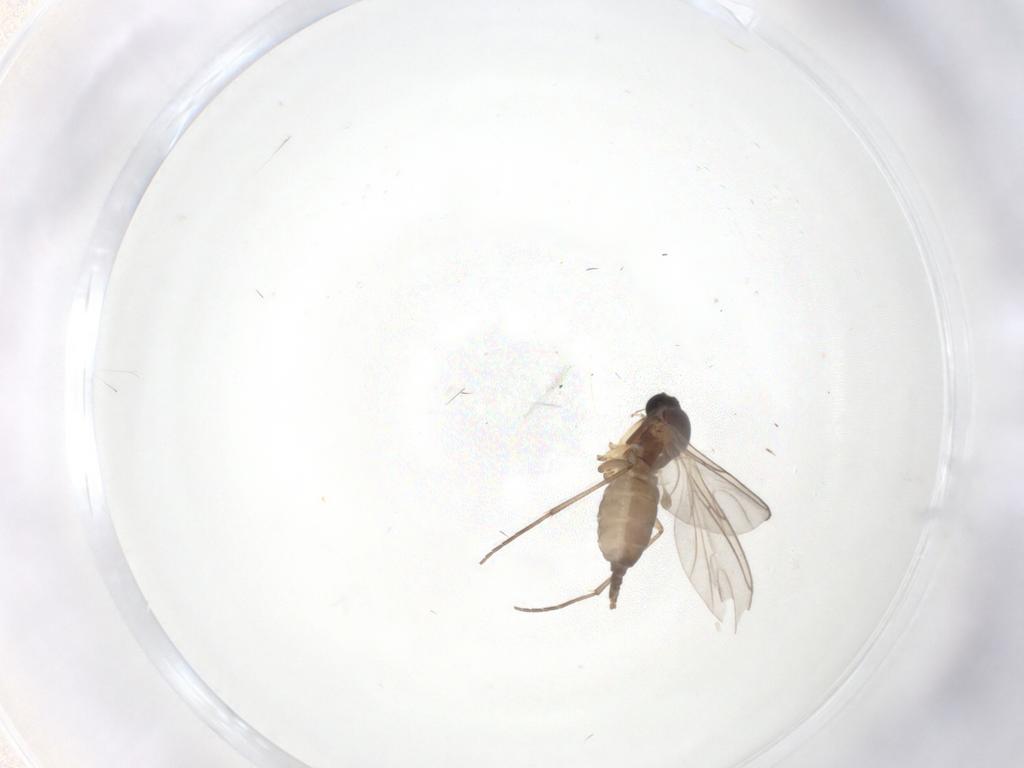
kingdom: Animalia
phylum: Arthropoda
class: Insecta
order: Diptera
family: Sciaridae
